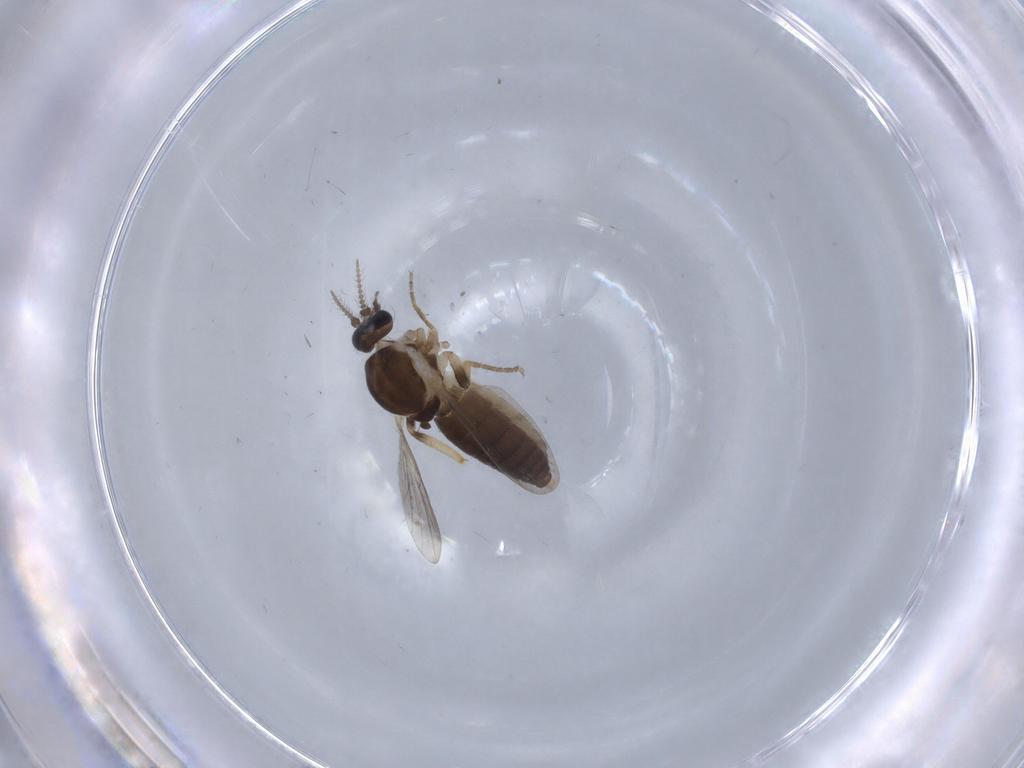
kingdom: Animalia
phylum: Arthropoda
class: Insecta
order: Diptera
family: Ceratopogonidae
